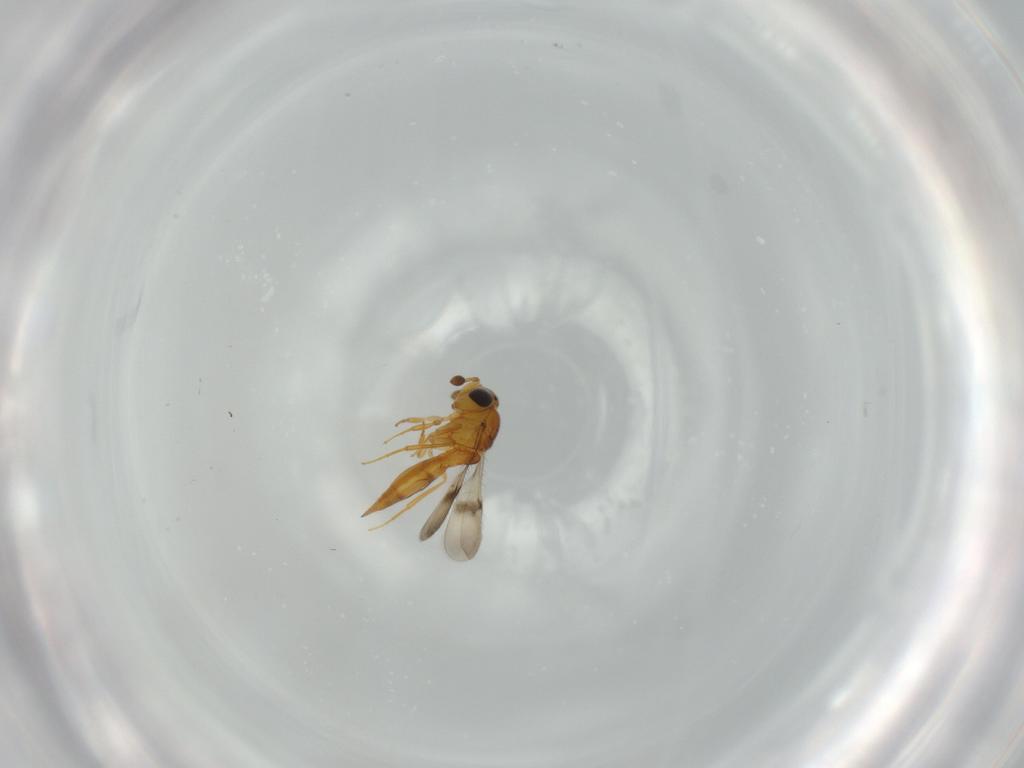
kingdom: Animalia
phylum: Arthropoda
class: Insecta
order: Hymenoptera
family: Scelionidae
